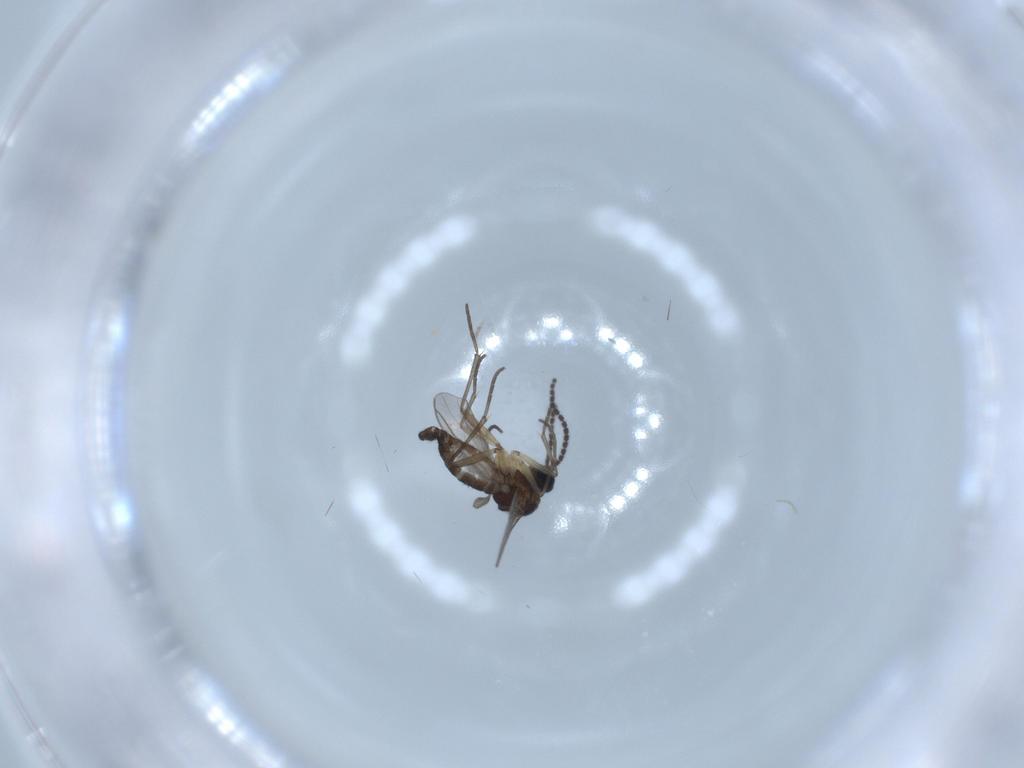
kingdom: Animalia
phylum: Arthropoda
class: Insecta
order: Diptera
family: Sciaridae
